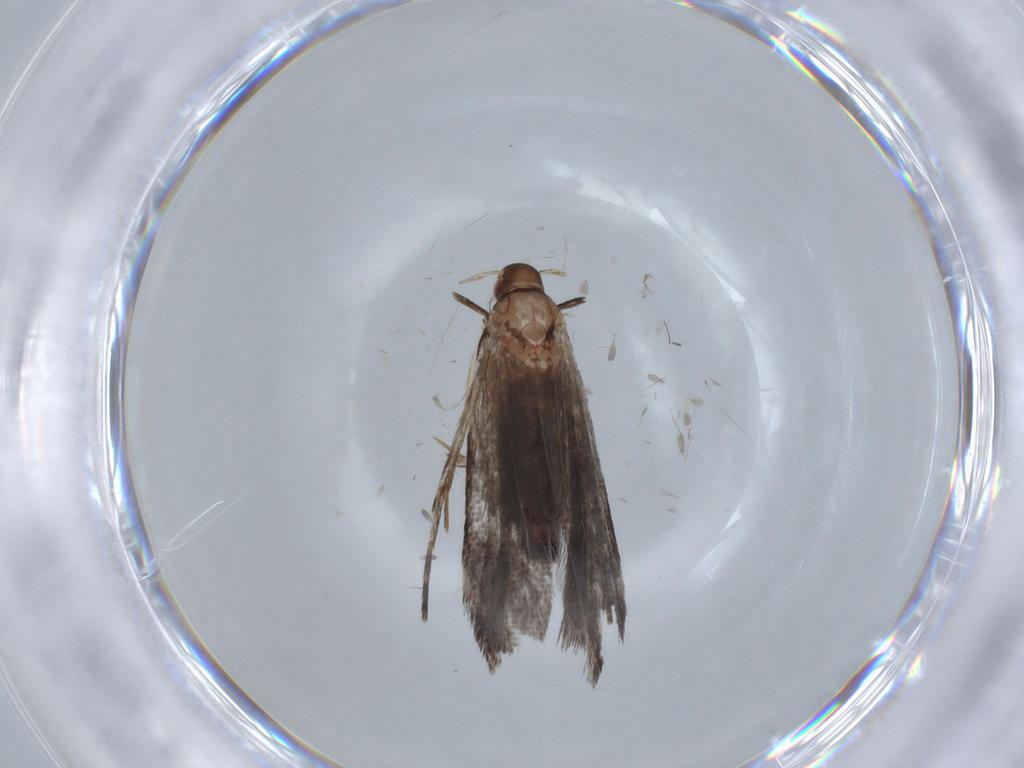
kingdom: Animalia
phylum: Arthropoda
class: Insecta
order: Lepidoptera
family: Gelechiidae
